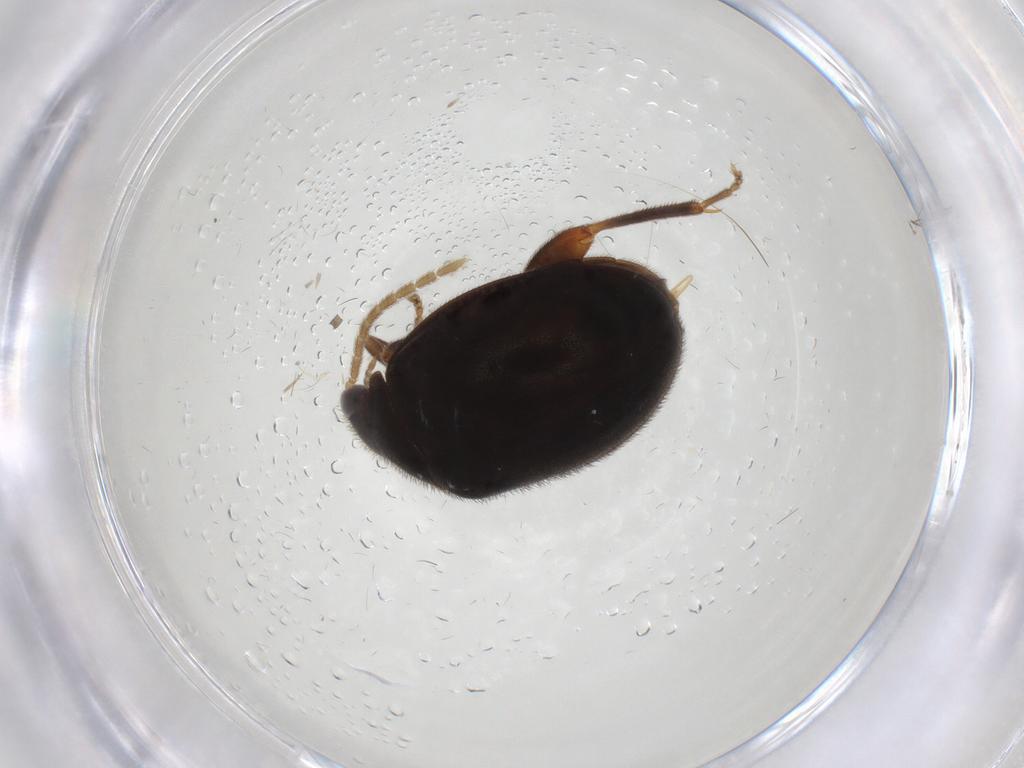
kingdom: Animalia
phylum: Arthropoda
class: Insecta
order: Coleoptera
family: Scirtidae
